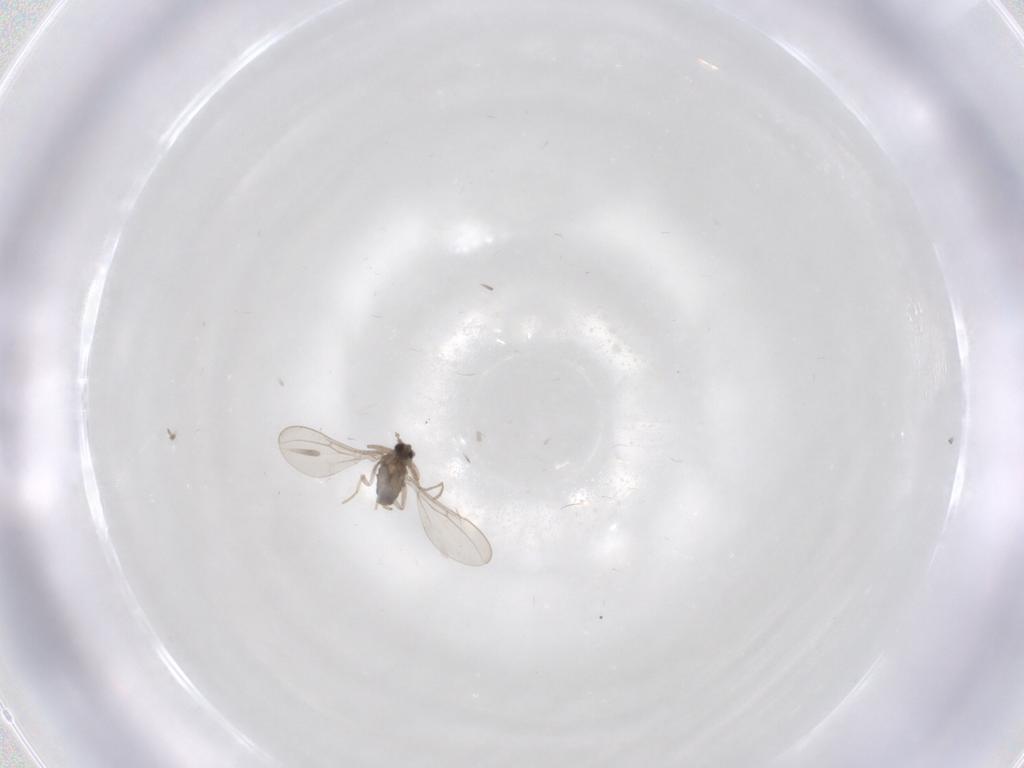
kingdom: Animalia
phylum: Arthropoda
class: Insecta
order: Diptera
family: Cecidomyiidae
